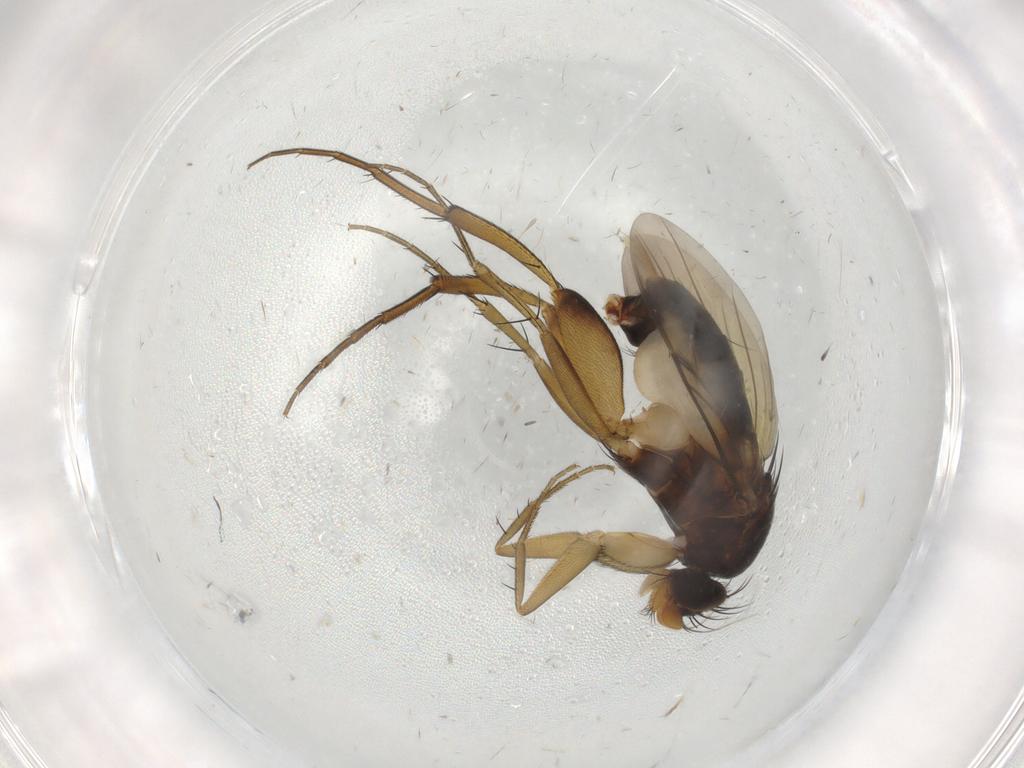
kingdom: Animalia
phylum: Arthropoda
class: Insecta
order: Diptera
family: Phoridae
